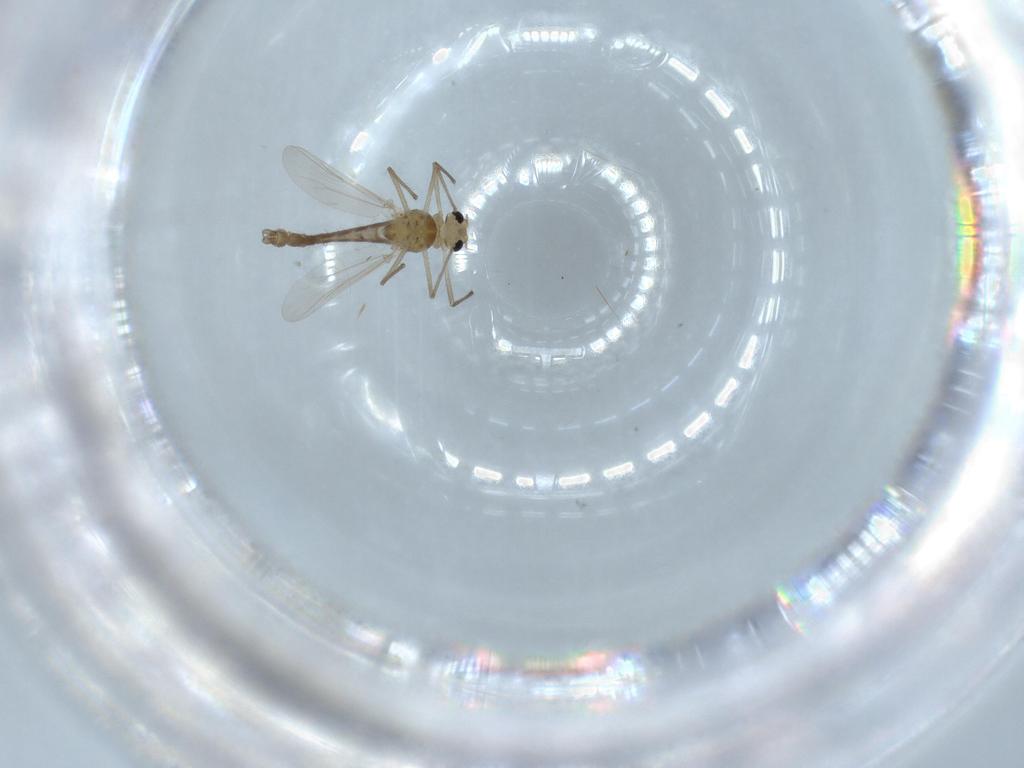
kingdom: Animalia
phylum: Arthropoda
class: Insecta
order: Diptera
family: Chironomidae
